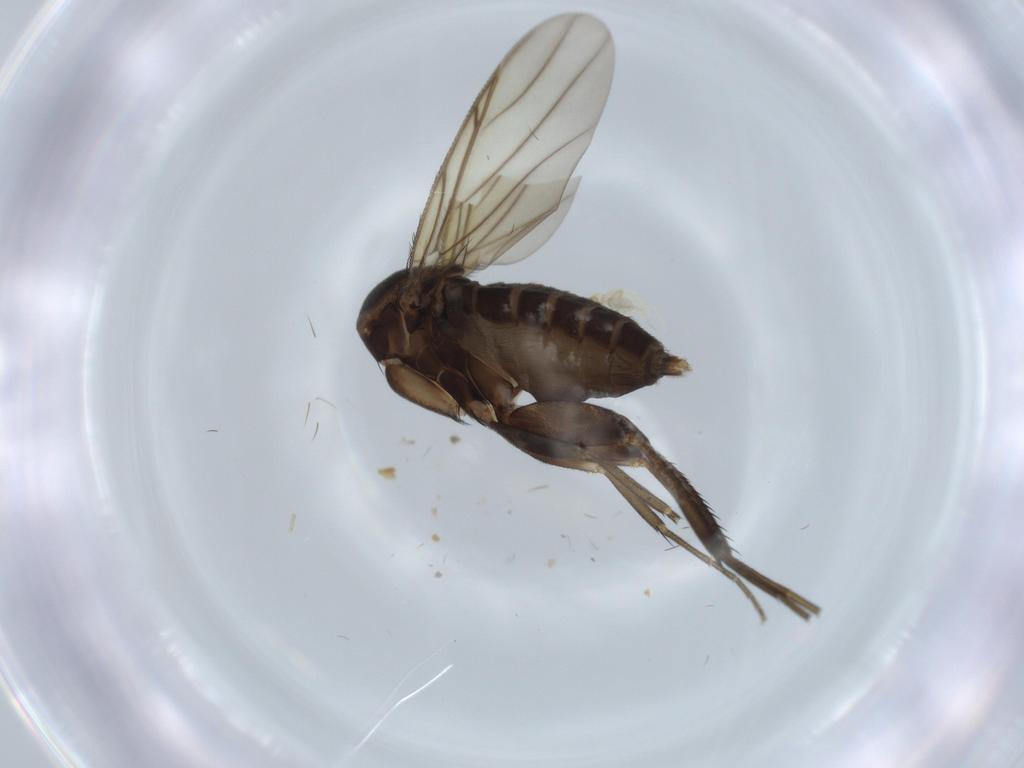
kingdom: Animalia
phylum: Arthropoda
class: Insecta
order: Diptera
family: Phoridae
